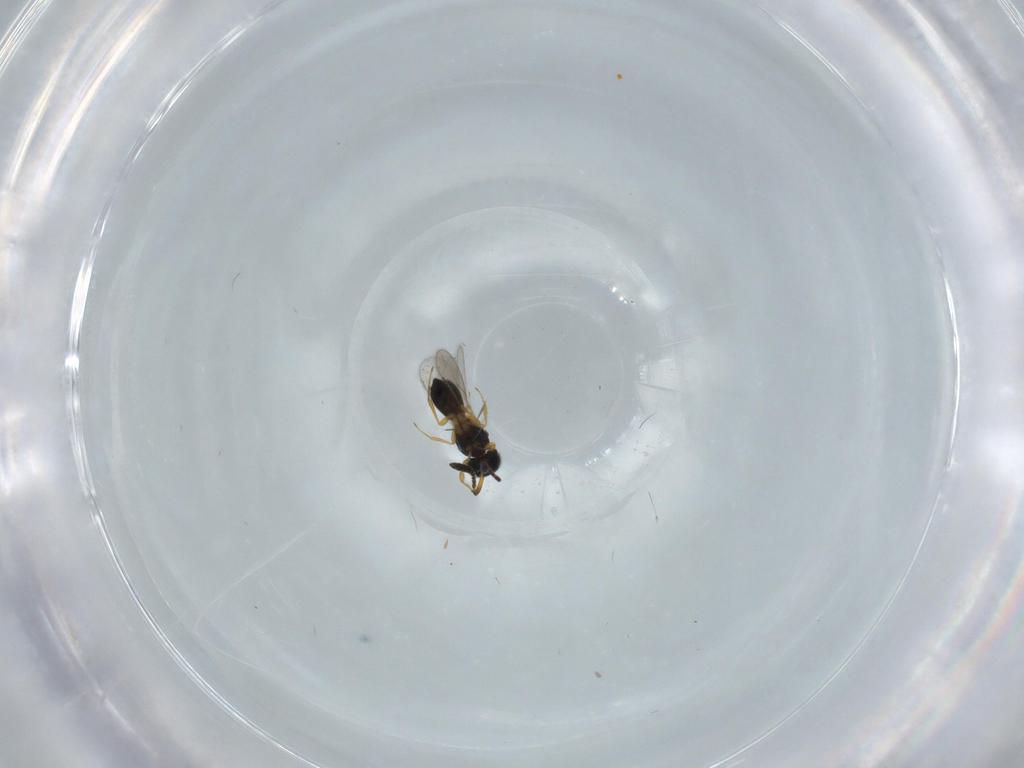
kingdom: Animalia
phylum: Arthropoda
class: Insecta
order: Hymenoptera
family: Scelionidae
